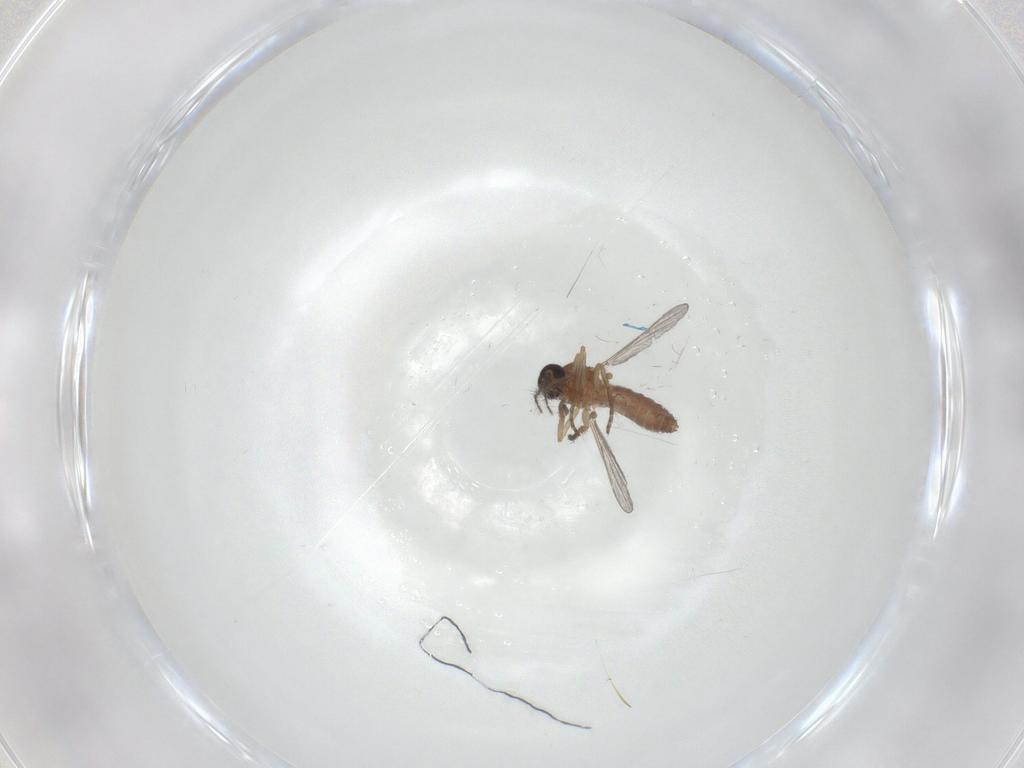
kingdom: Animalia
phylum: Arthropoda
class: Insecta
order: Diptera
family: Ceratopogonidae
